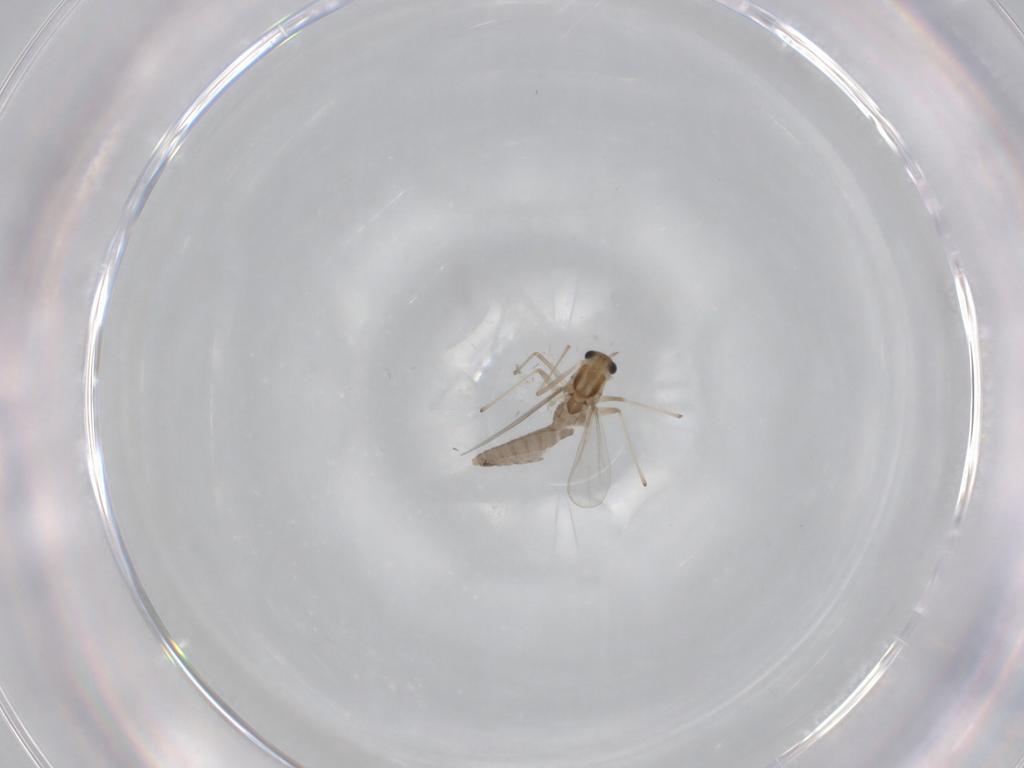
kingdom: Animalia
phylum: Arthropoda
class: Insecta
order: Diptera
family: Chironomidae
